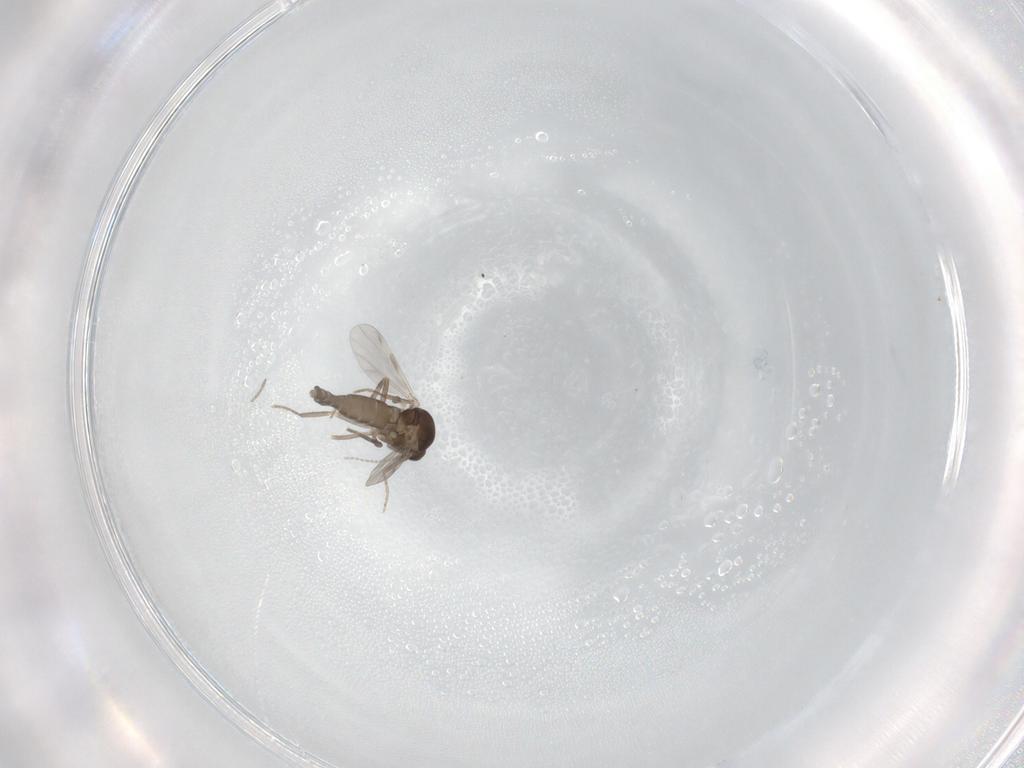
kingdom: Animalia
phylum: Arthropoda
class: Insecta
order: Diptera
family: Ceratopogonidae
